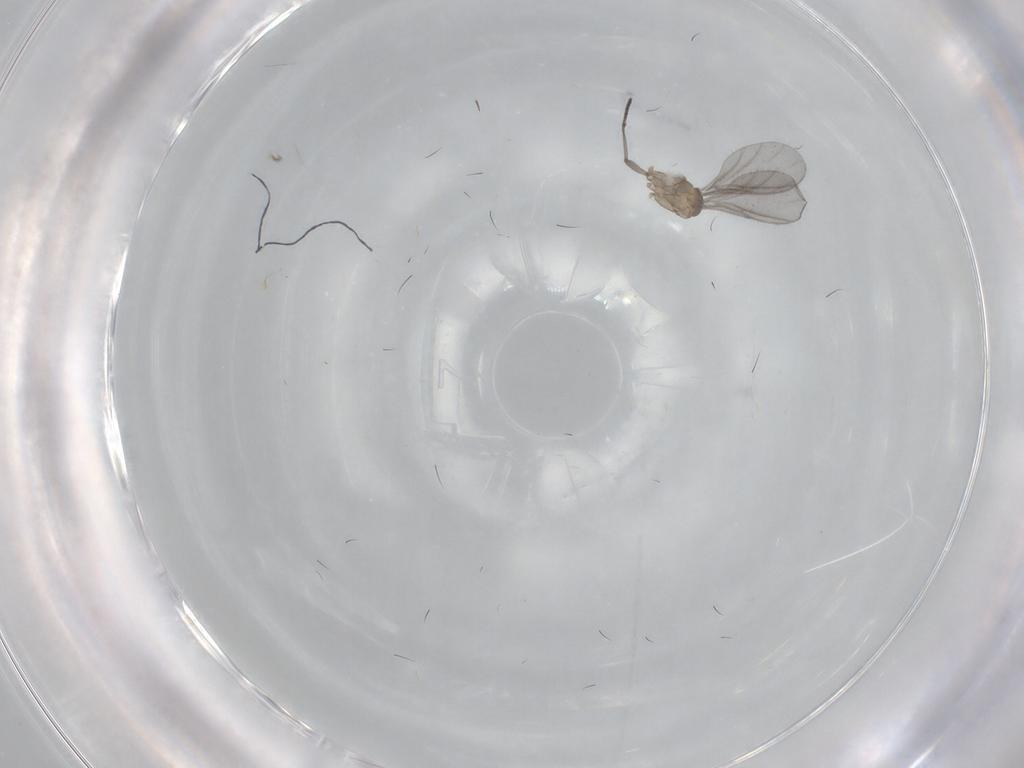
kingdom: Animalia
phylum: Arthropoda
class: Insecta
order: Diptera
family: Sciaridae
